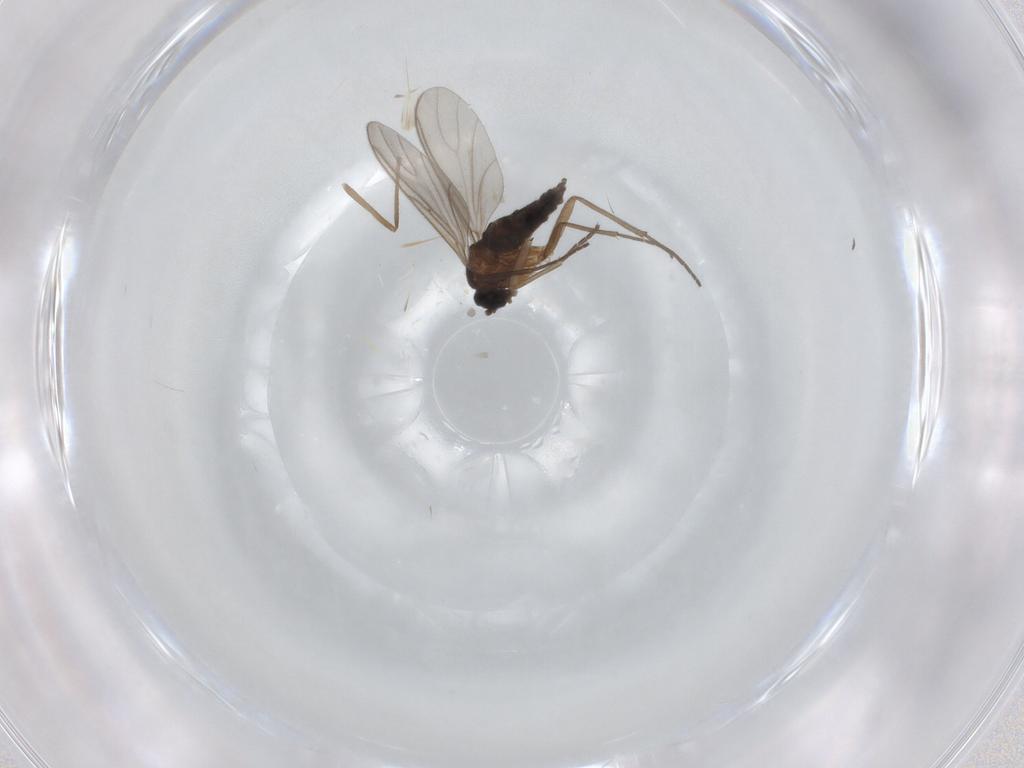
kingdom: Animalia
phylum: Arthropoda
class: Insecta
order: Diptera
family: Chironomidae
